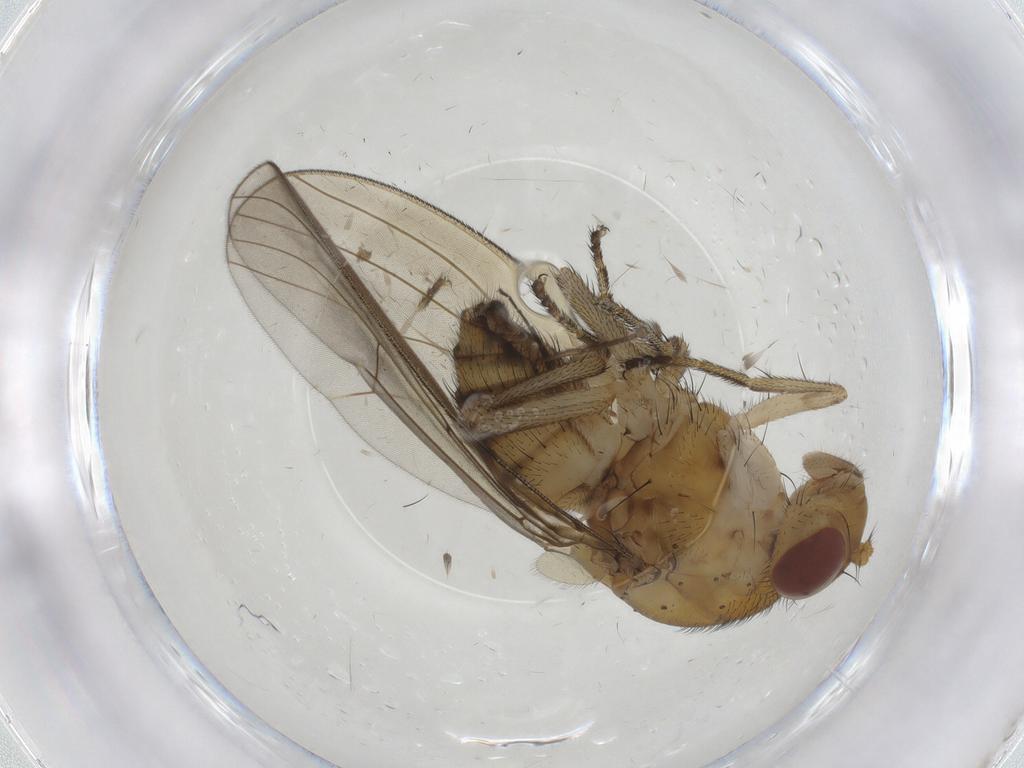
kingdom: Animalia
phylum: Arthropoda
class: Insecta
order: Diptera
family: Psychodidae
